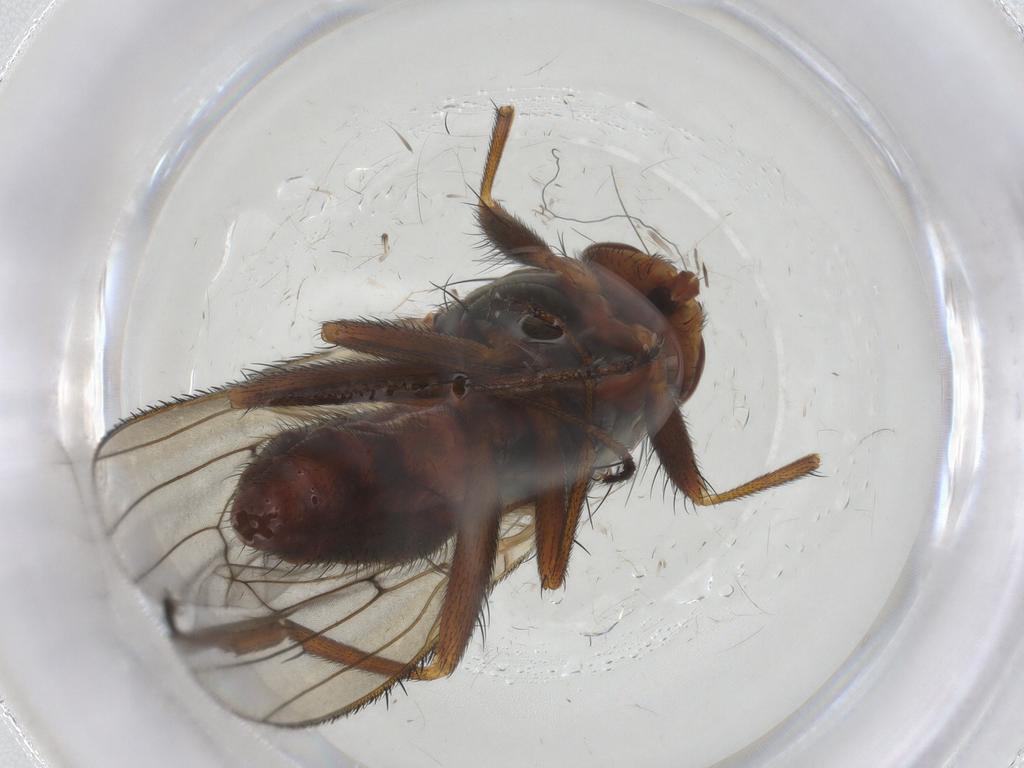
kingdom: Animalia
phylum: Arthropoda
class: Insecta
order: Diptera
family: Heleomyzidae
